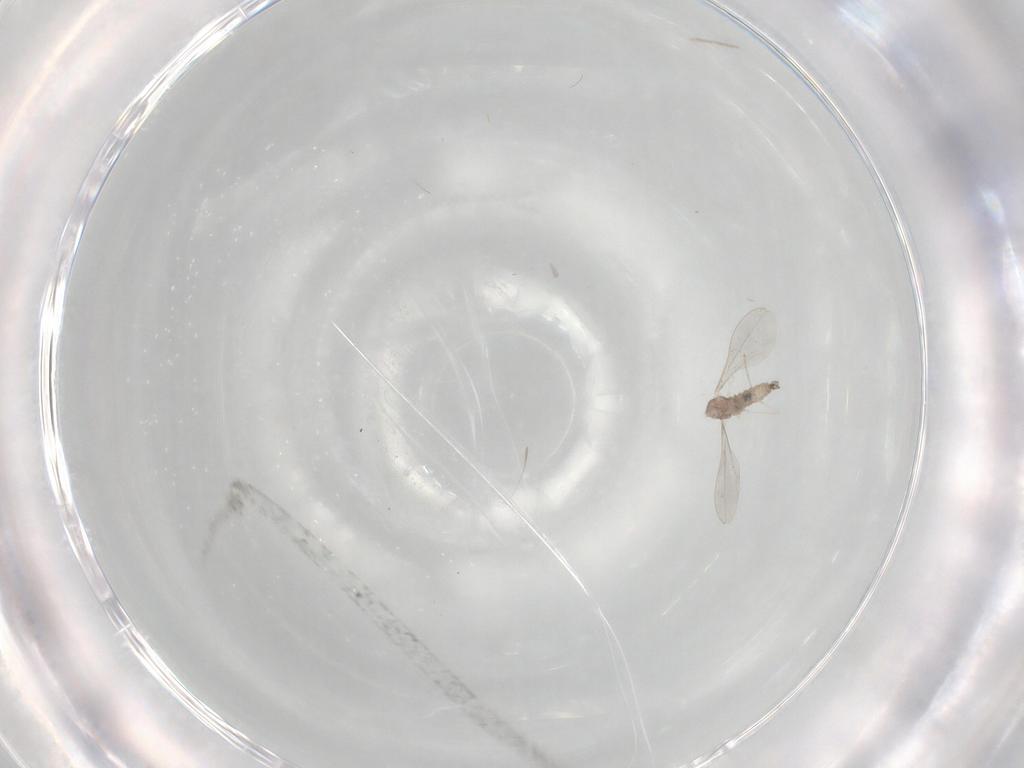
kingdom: Animalia
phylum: Arthropoda
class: Insecta
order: Diptera
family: Cecidomyiidae
